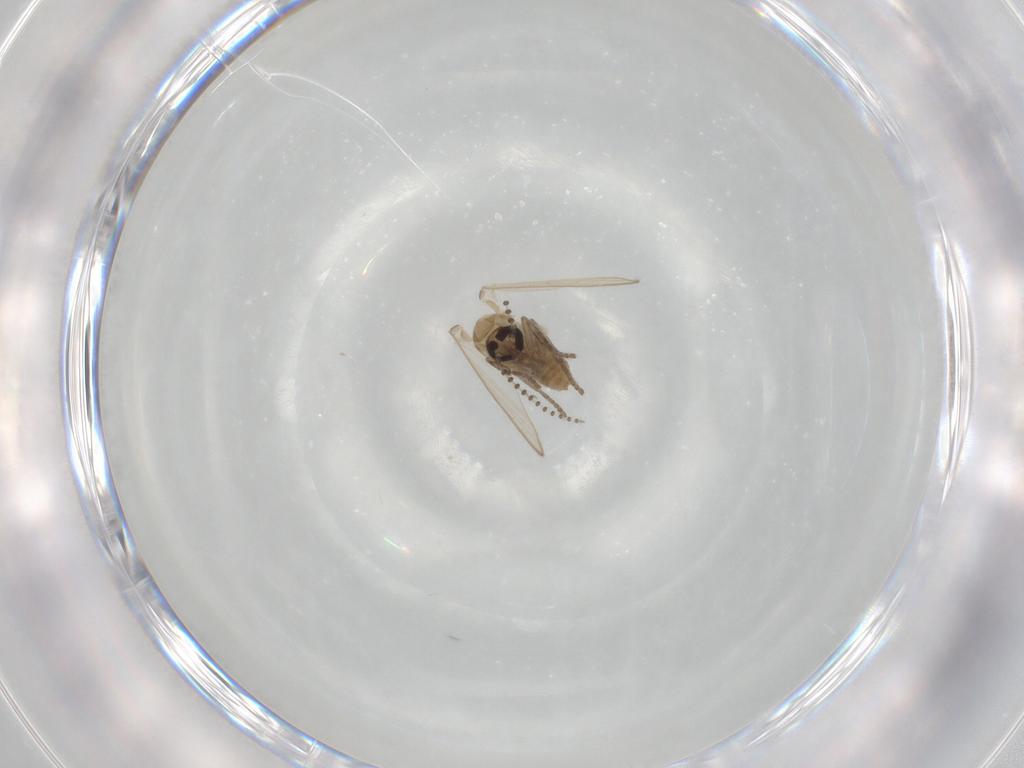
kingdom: Animalia
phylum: Arthropoda
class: Insecta
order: Diptera
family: Psychodidae
